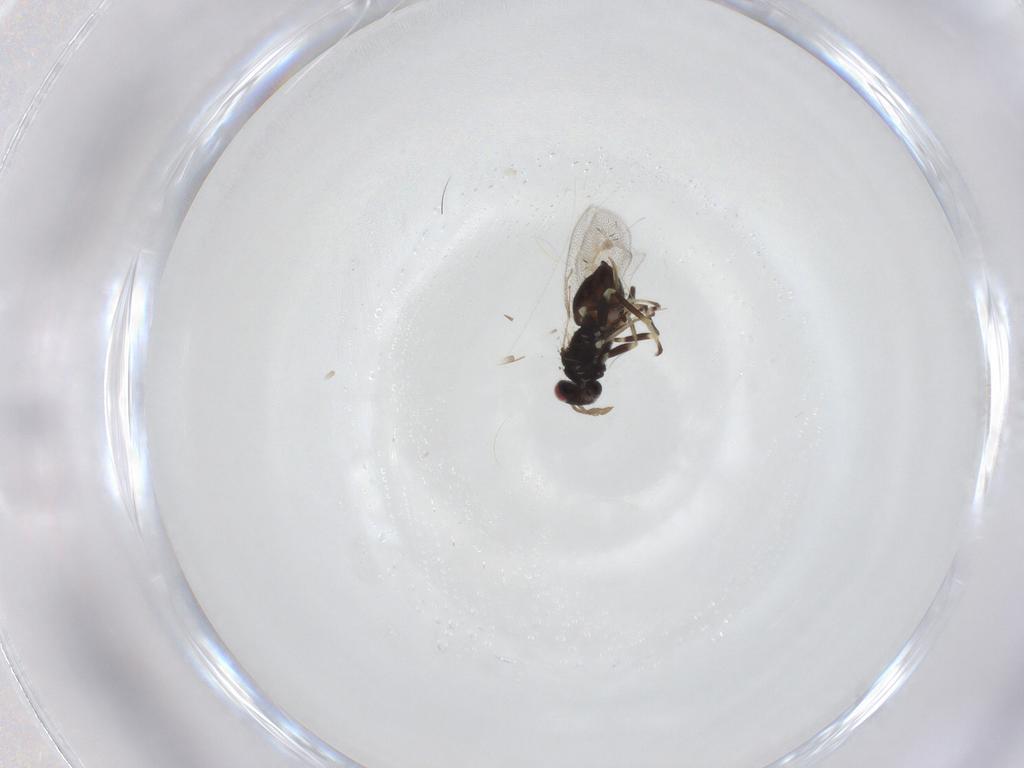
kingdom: Animalia
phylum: Arthropoda
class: Insecta
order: Hymenoptera
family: Eulophidae
